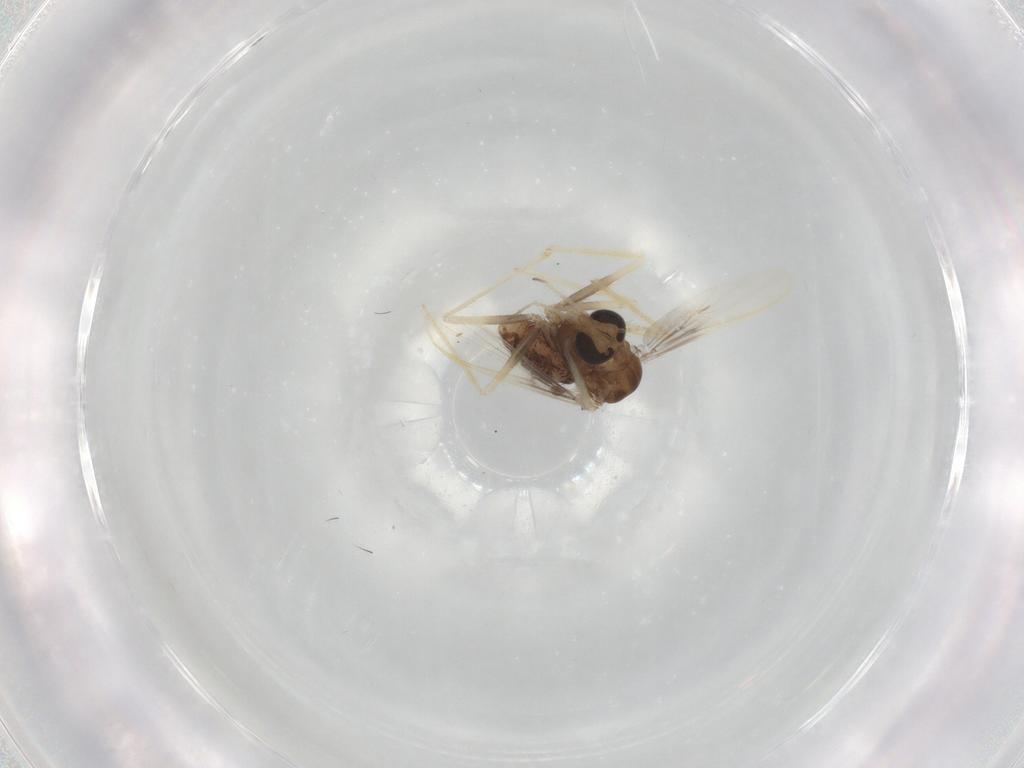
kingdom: Animalia
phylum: Arthropoda
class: Insecta
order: Diptera
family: Chironomidae
